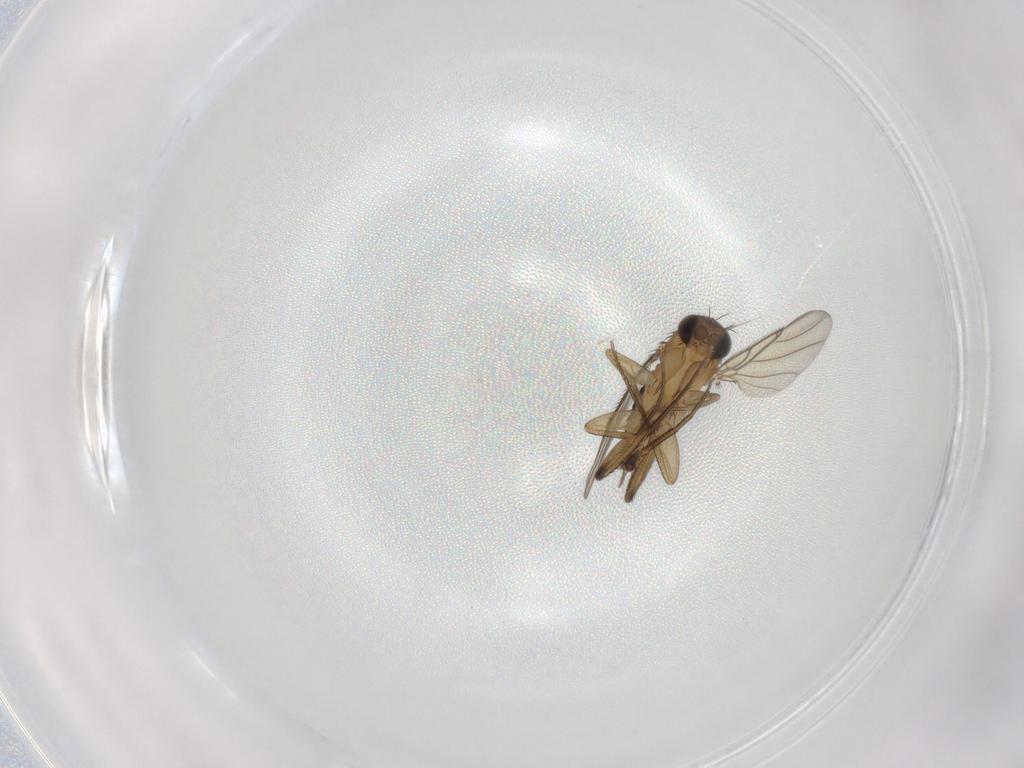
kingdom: Animalia
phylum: Arthropoda
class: Insecta
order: Diptera
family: Phoridae
